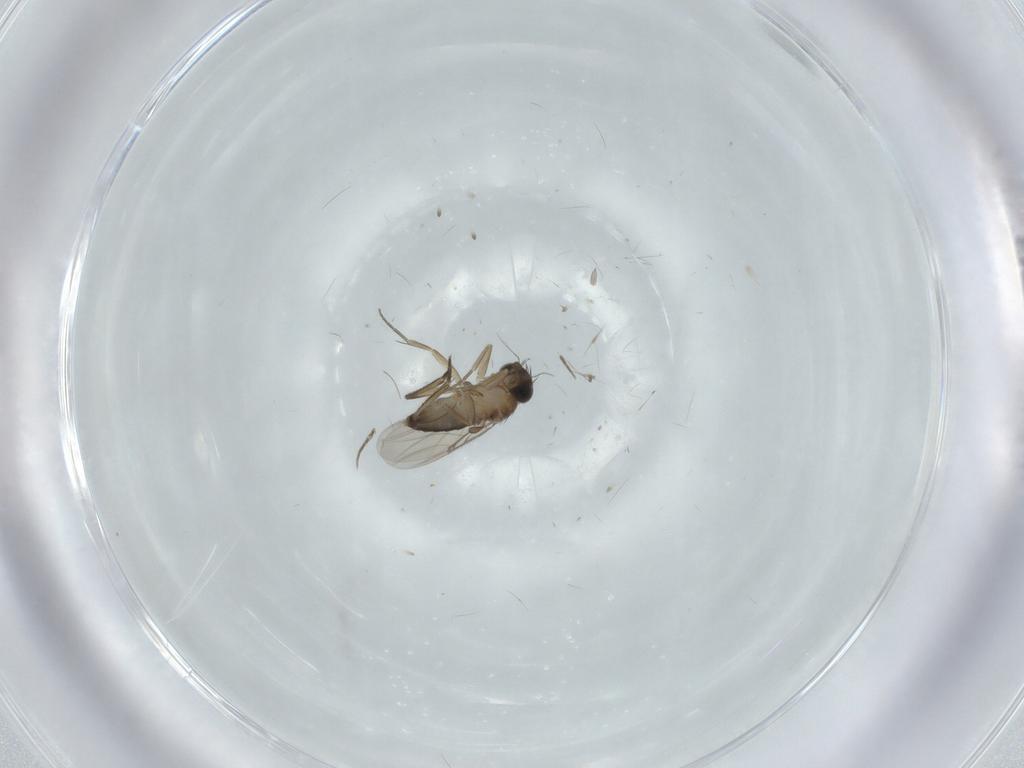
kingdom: Animalia
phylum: Arthropoda
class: Insecta
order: Diptera
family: Phoridae
